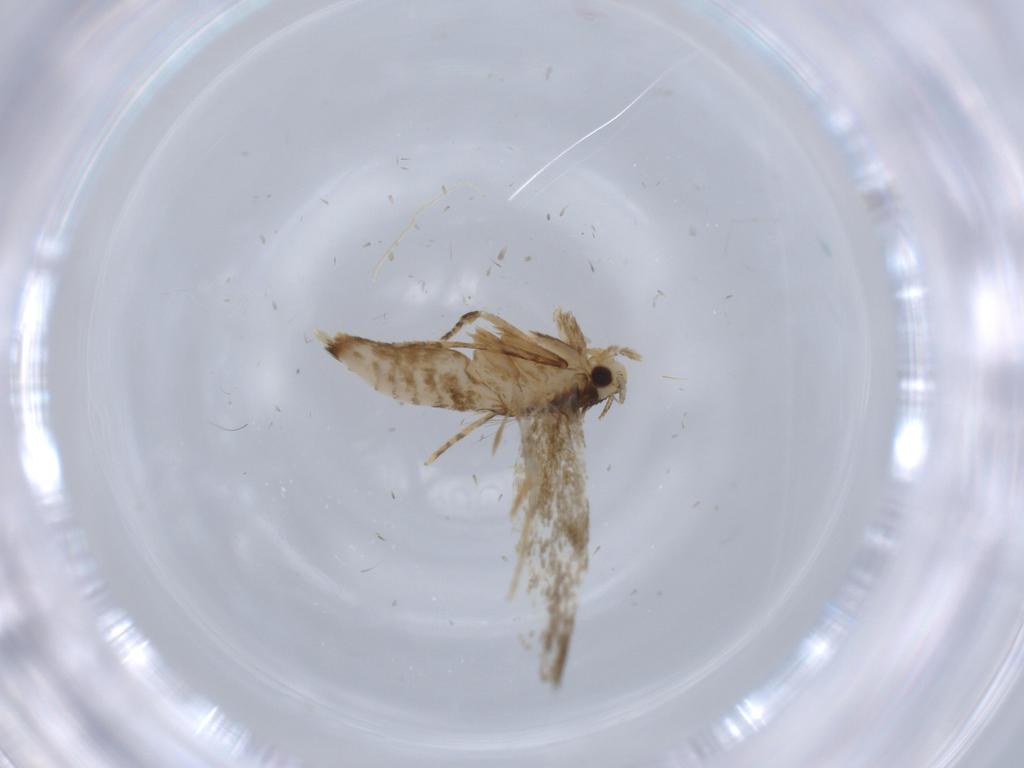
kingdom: Animalia
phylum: Arthropoda
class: Insecta
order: Lepidoptera
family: Tineidae
